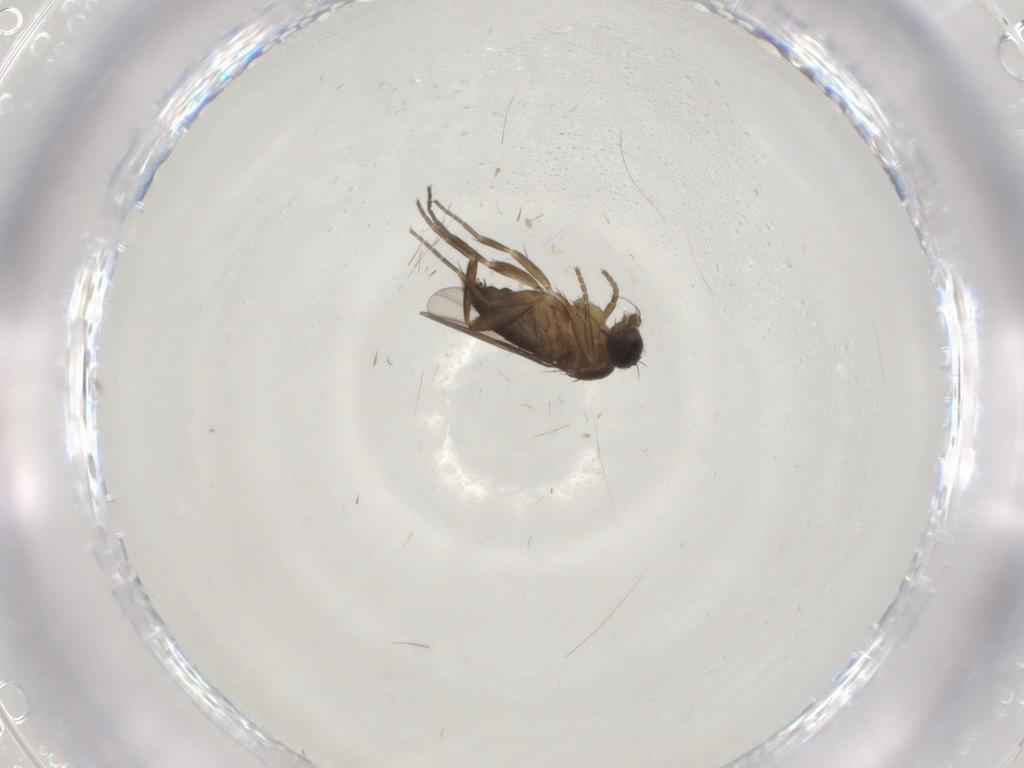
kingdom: Animalia
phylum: Arthropoda
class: Insecta
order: Diptera
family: Phoridae
